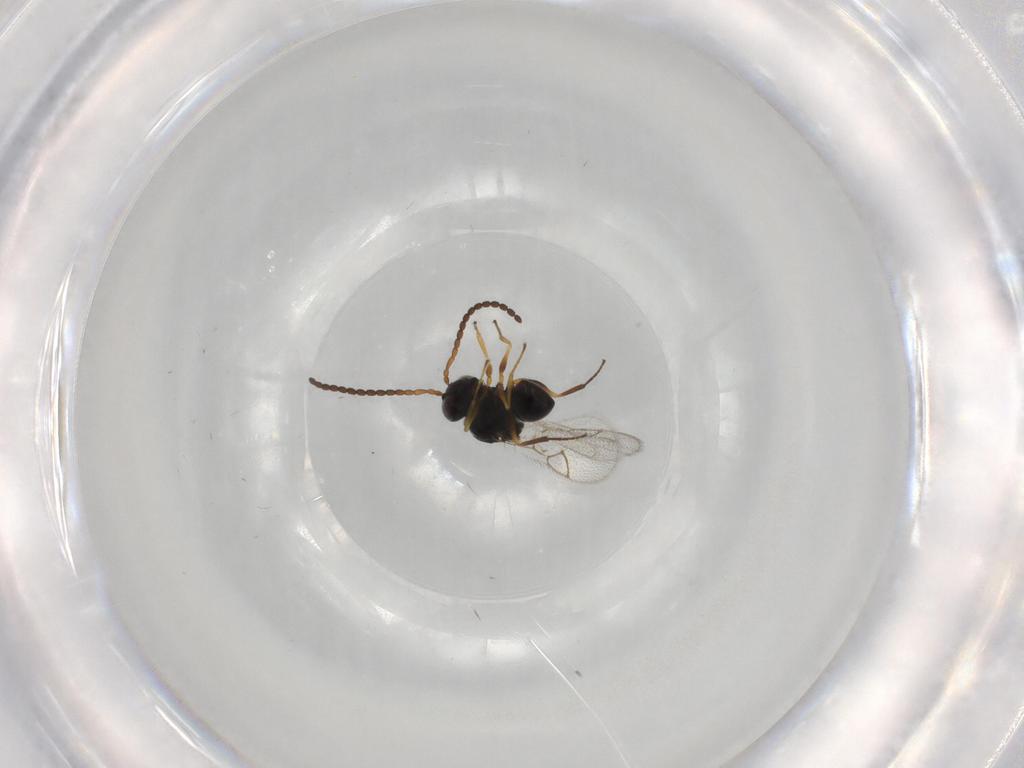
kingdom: Animalia
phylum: Arthropoda
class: Insecta
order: Hymenoptera
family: Figitidae
